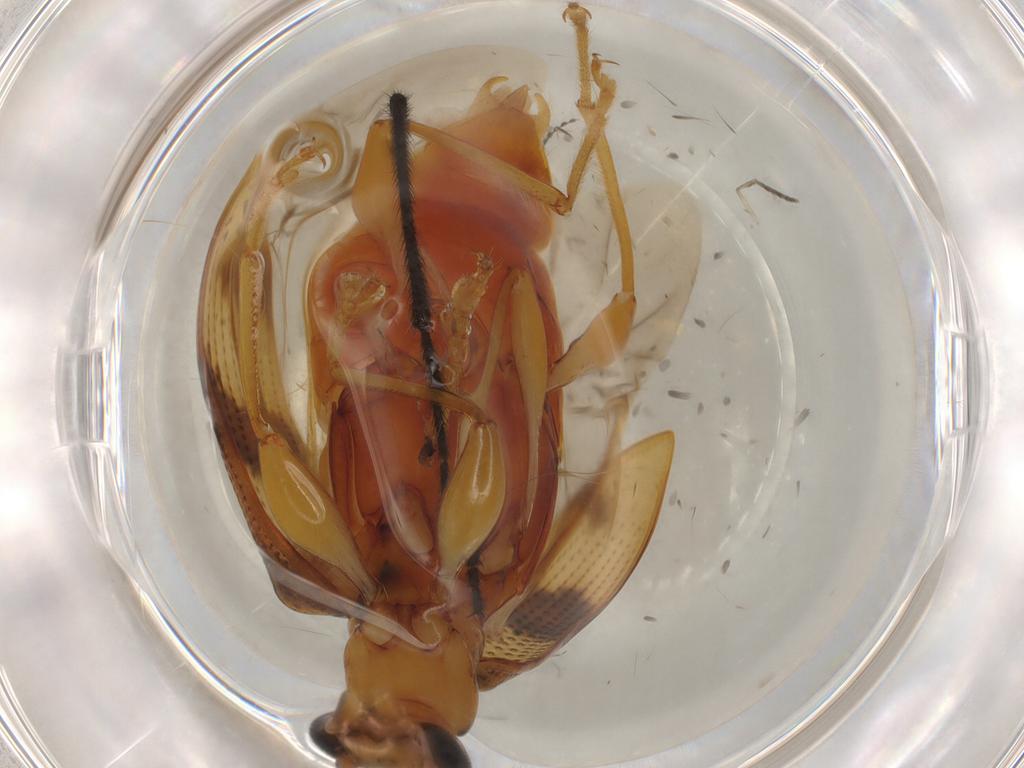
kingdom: Animalia
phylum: Arthropoda
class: Insecta
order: Coleoptera
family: Tenebrionidae
